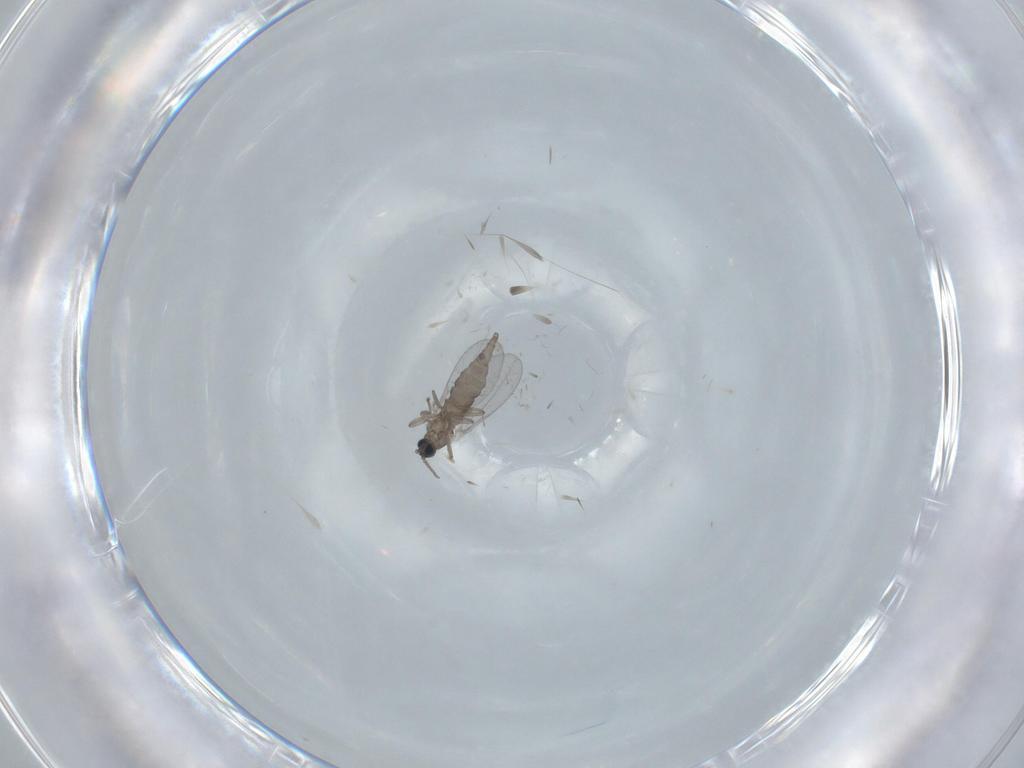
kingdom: Animalia
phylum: Arthropoda
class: Insecta
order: Diptera
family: Cecidomyiidae
